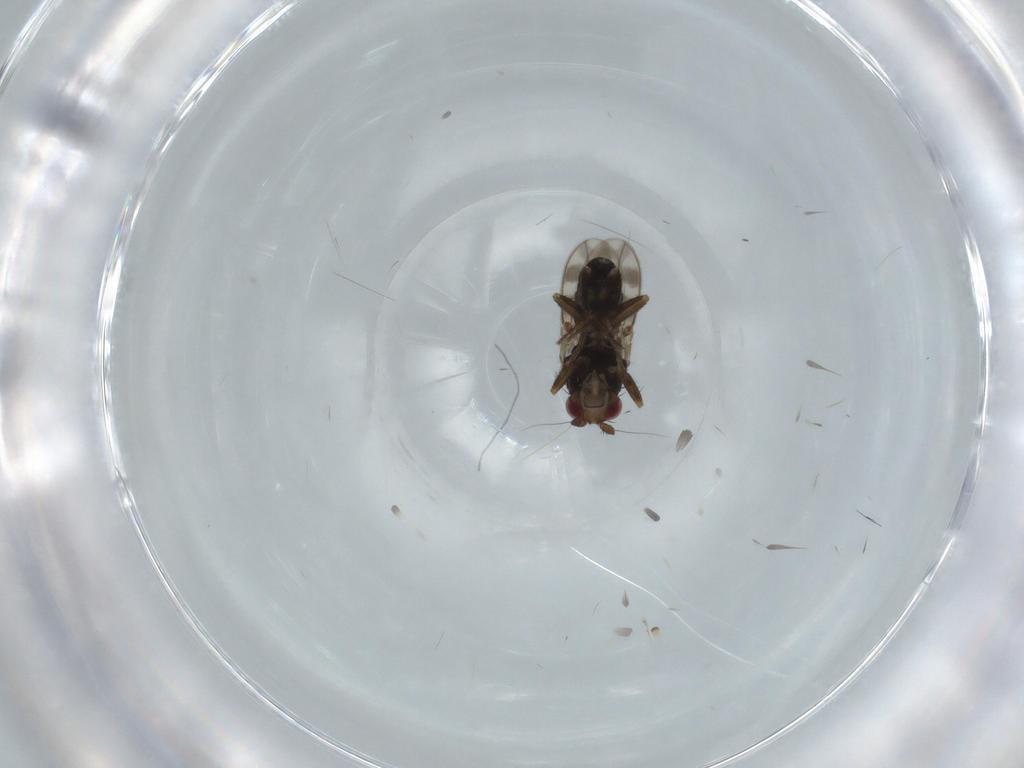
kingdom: Animalia
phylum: Arthropoda
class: Insecta
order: Diptera
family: Sphaeroceridae
